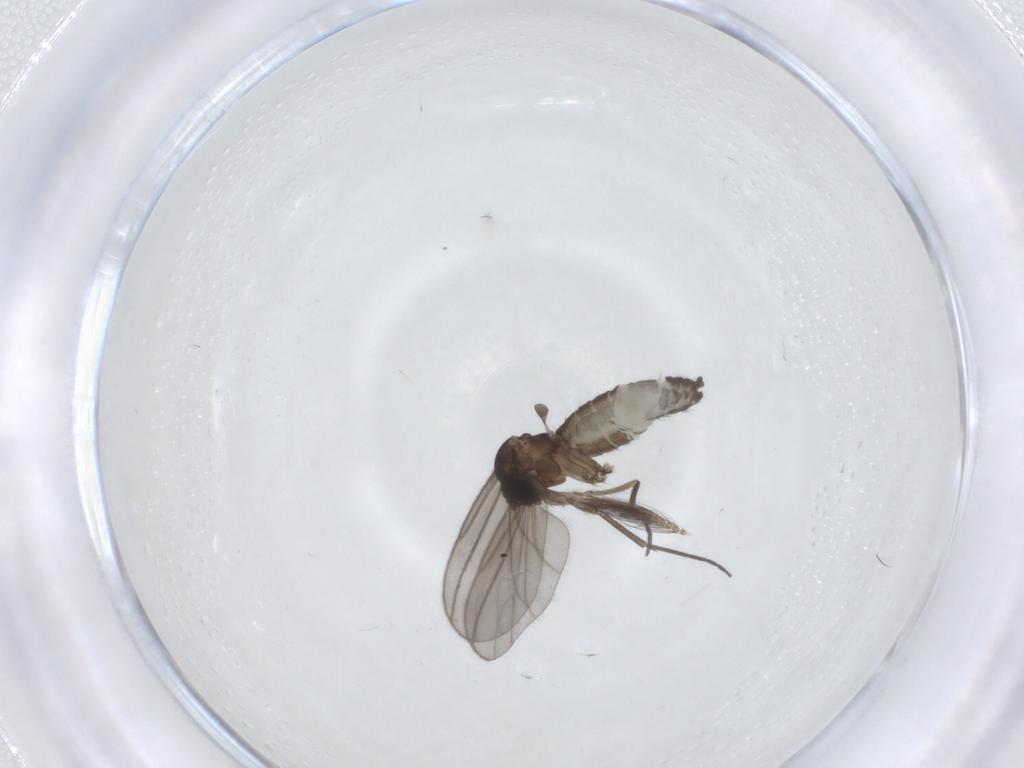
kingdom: Animalia
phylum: Arthropoda
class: Insecta
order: Diptera
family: Sciaridae
